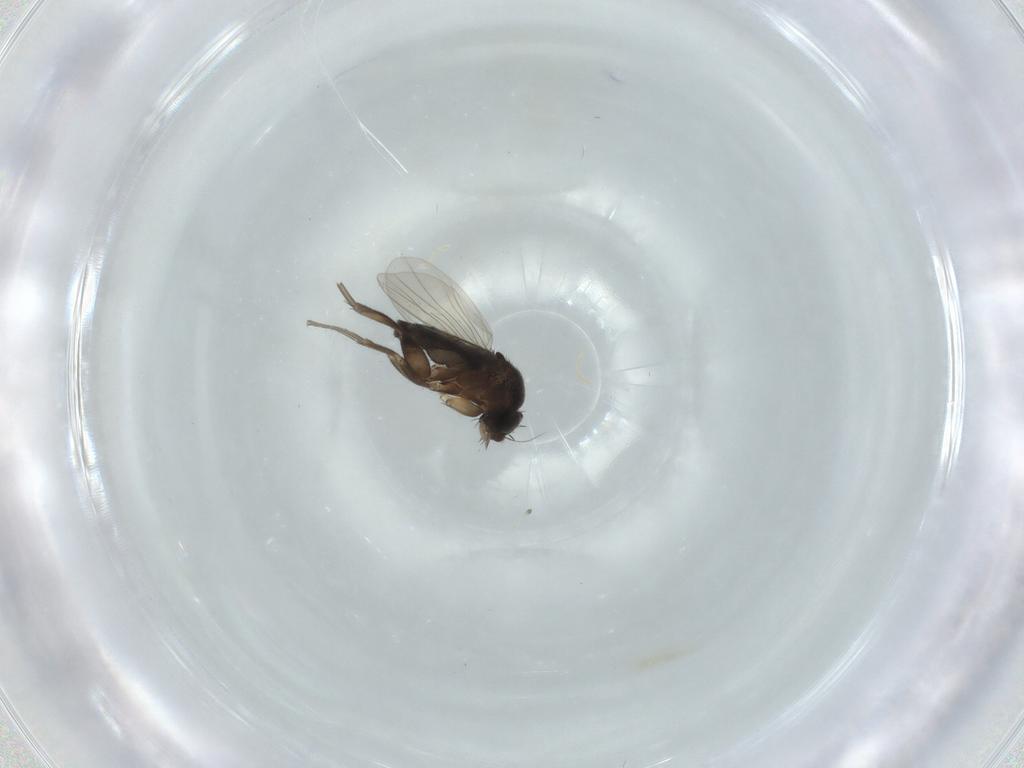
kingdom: Animalia
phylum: Arthropoda
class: Insecta
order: Diptera
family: Phoridae
